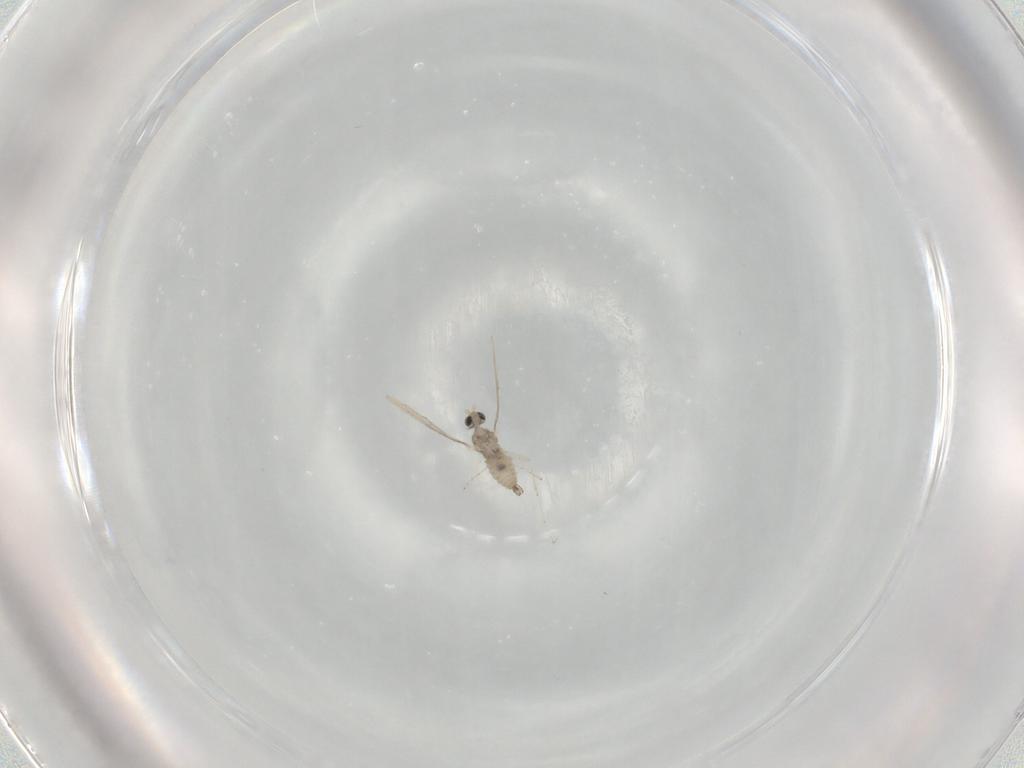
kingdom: Animalia
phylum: Arthropoda
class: Insecta
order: Diptera
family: Cecidomyiidae
